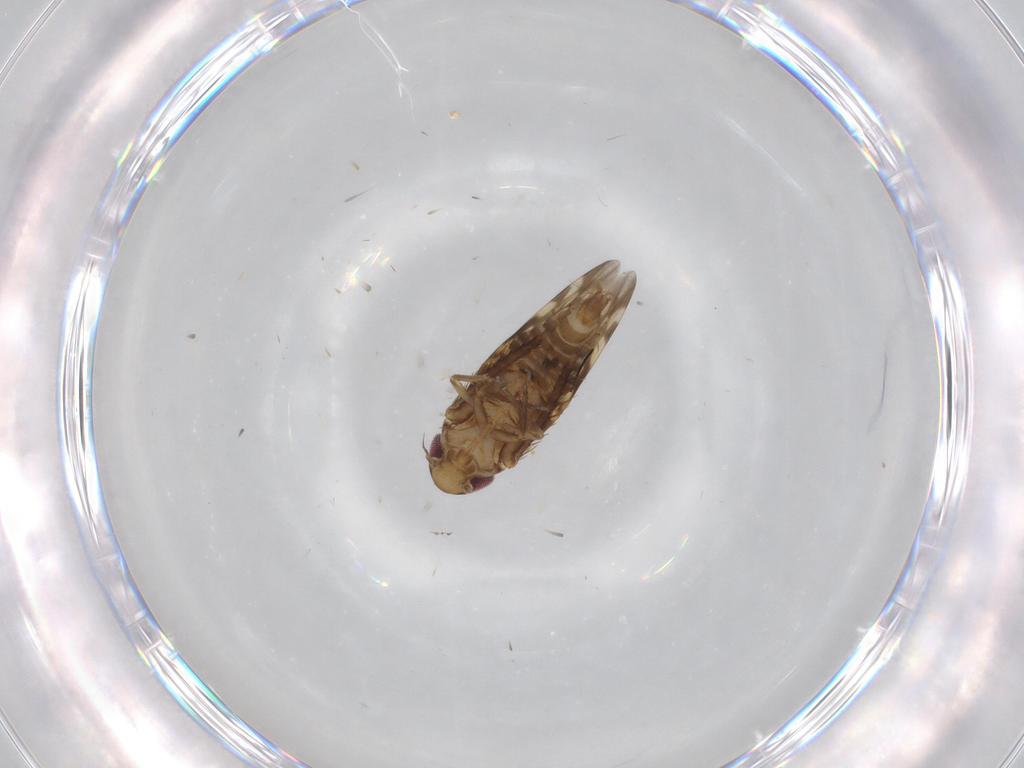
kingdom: Animalia
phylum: Arthropoda
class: Insecta
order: Hemiptera
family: Cicadellidae
